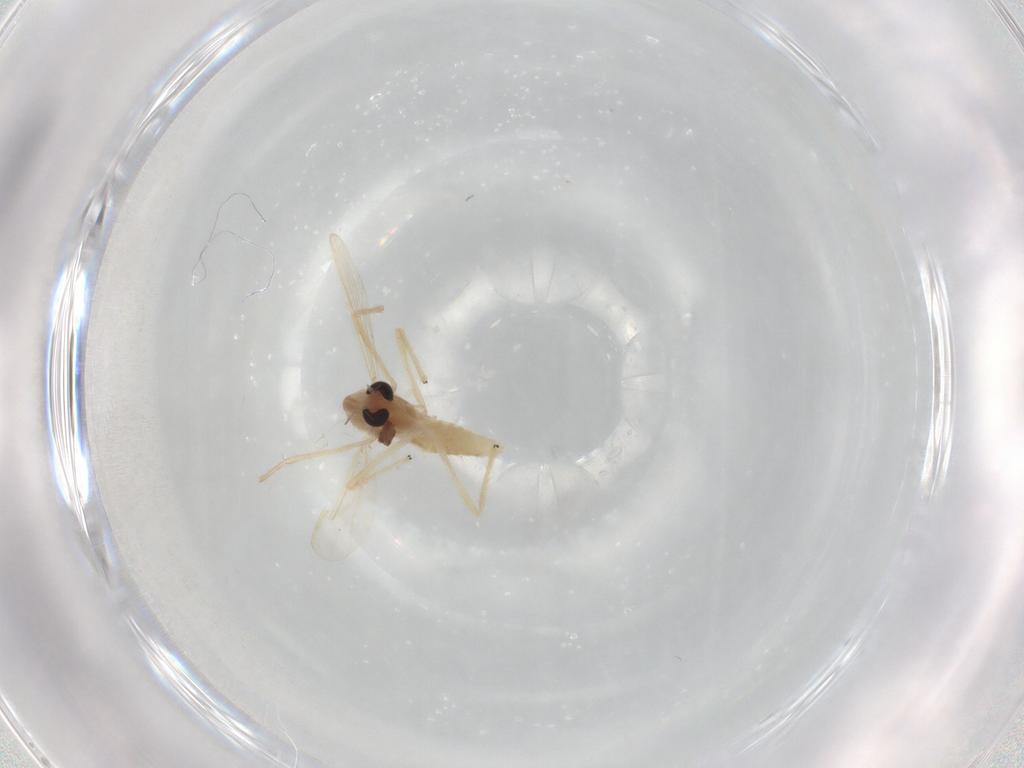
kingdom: Animalia
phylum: Arthropoda
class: Insecta
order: Diptera
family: Chironomidae
